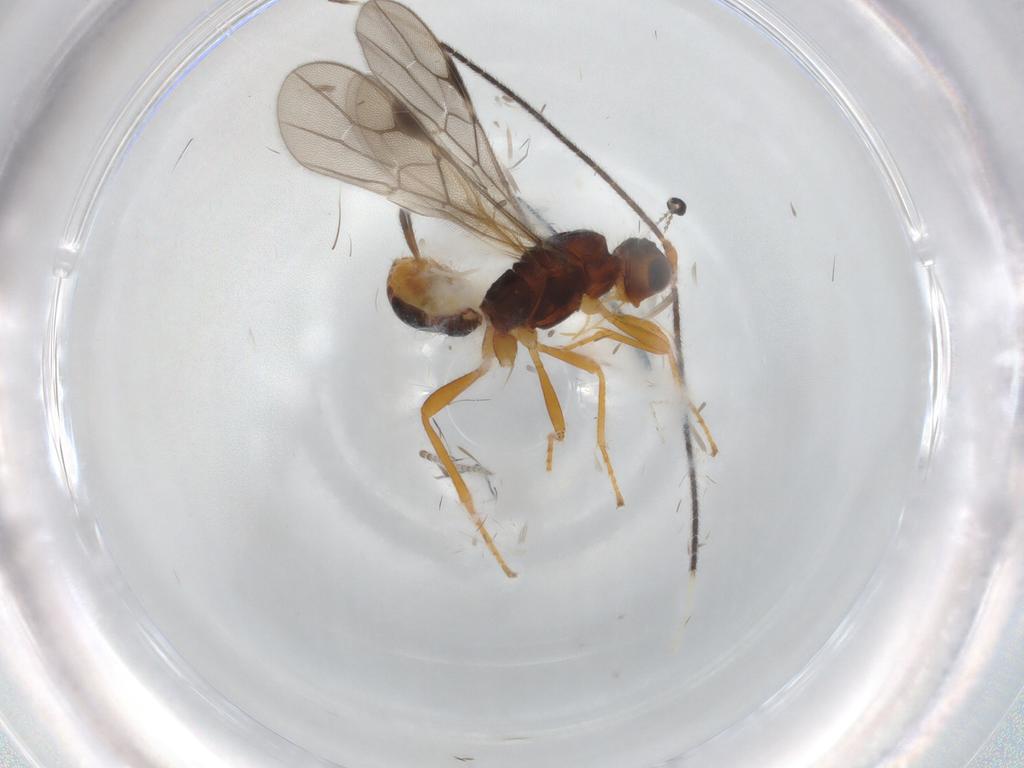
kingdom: Animalia
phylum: Arthropoda
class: Insecta
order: Hymenoptera
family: Braconidae
